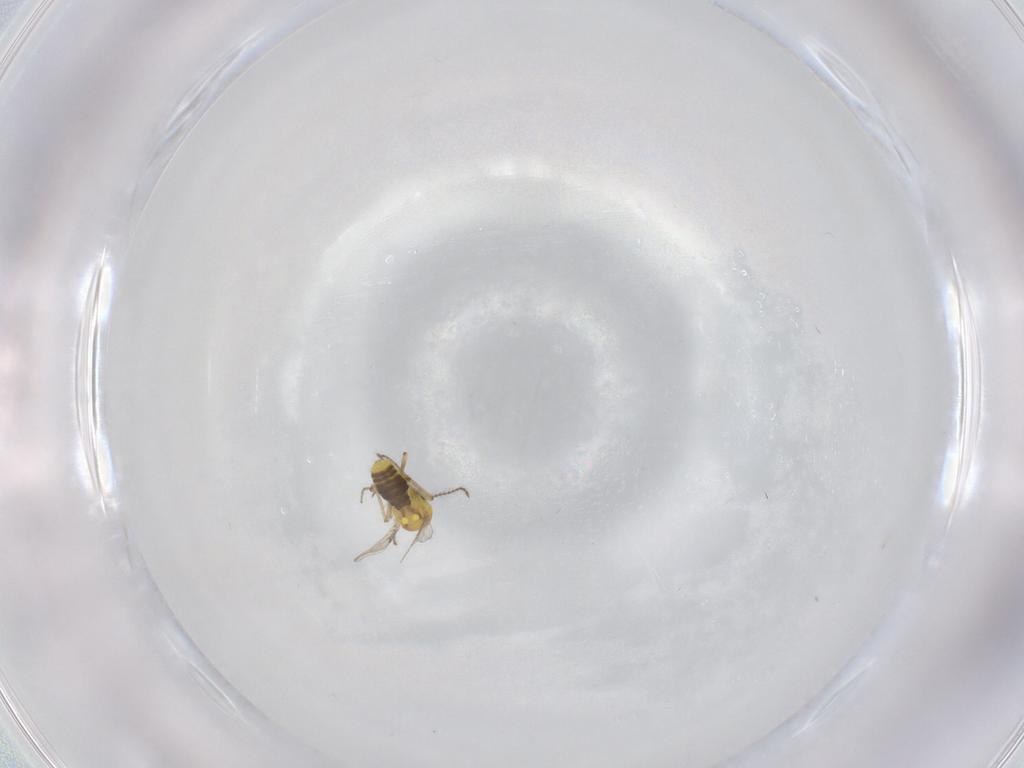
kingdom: Animalia
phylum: Arthropoda
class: Insecta
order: Diptera
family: Ceratopogonidae
